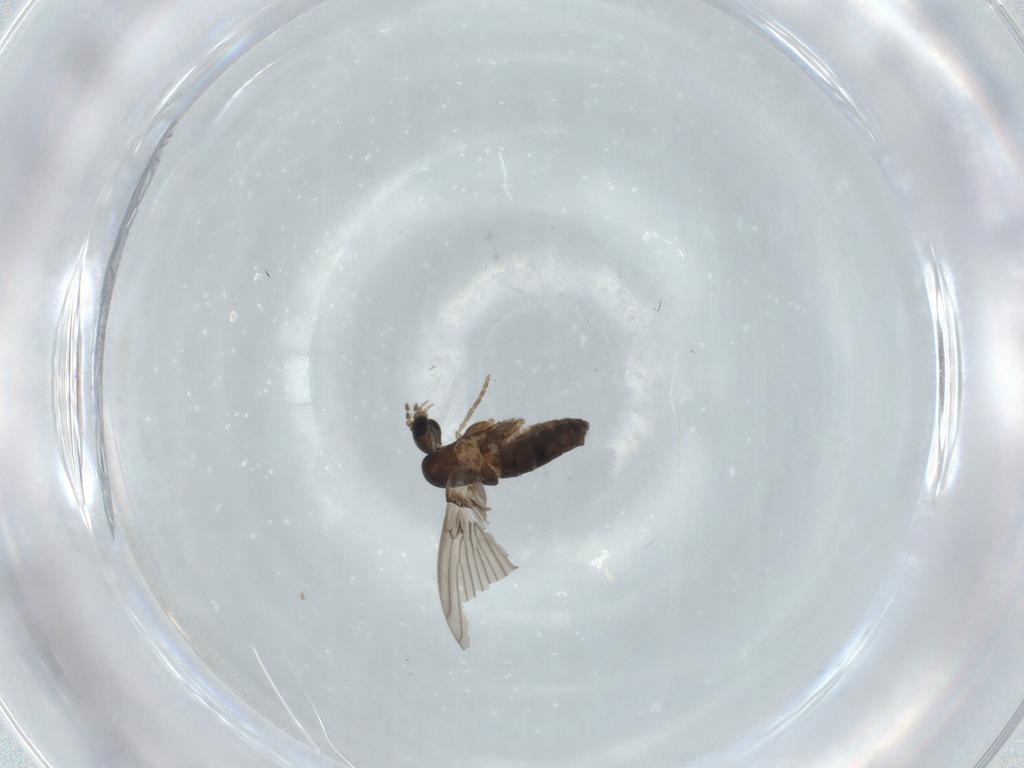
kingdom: Animalia
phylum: Arthropoda
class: Insecta
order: Diptera
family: Chironomidae
